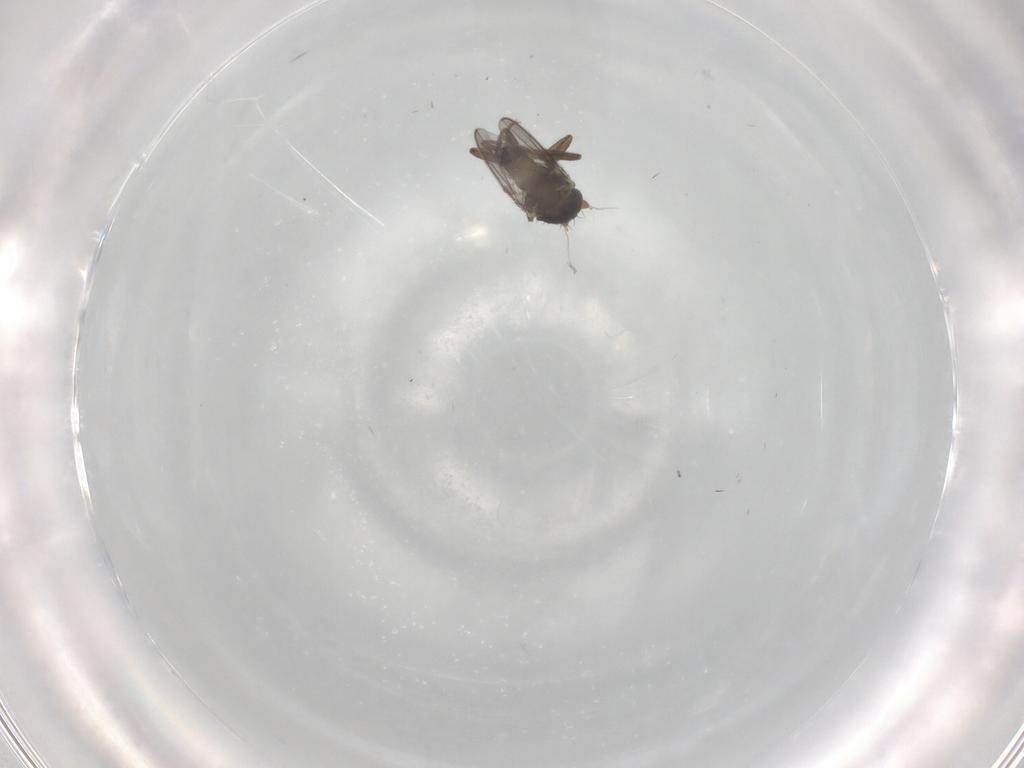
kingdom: Animalia
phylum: Arthropoda
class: Insecta
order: Diptera
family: Sphaeroceridae
